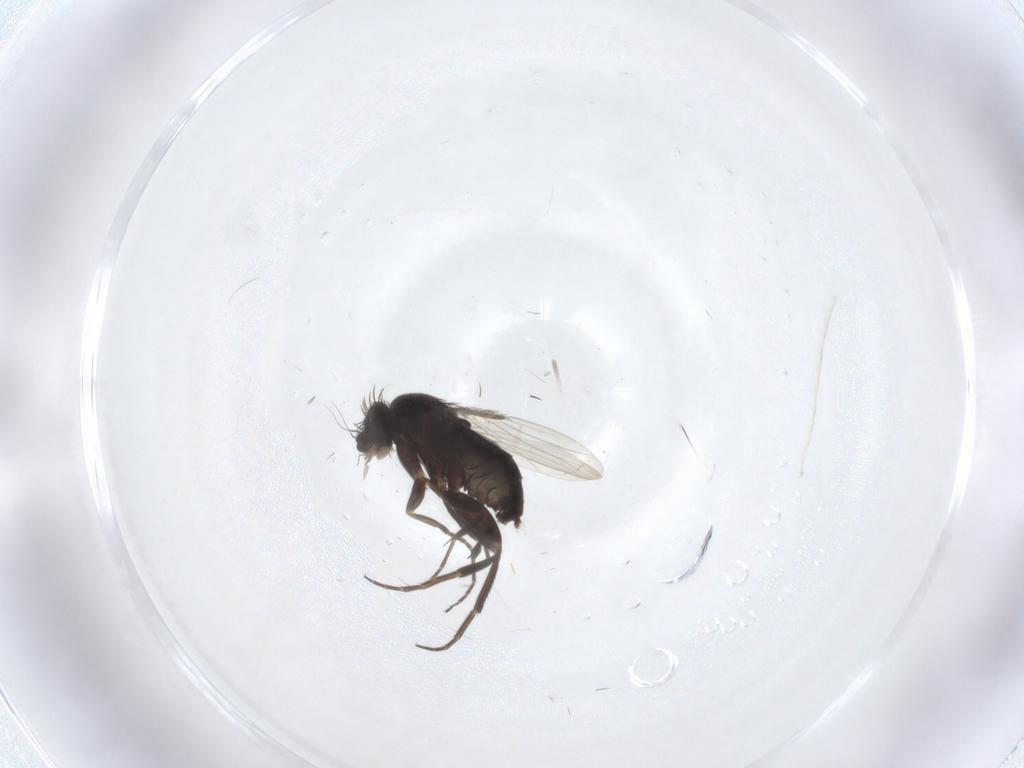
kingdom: Animalia
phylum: Arthropoda
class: Insecta
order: Diptera
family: Phoridae
